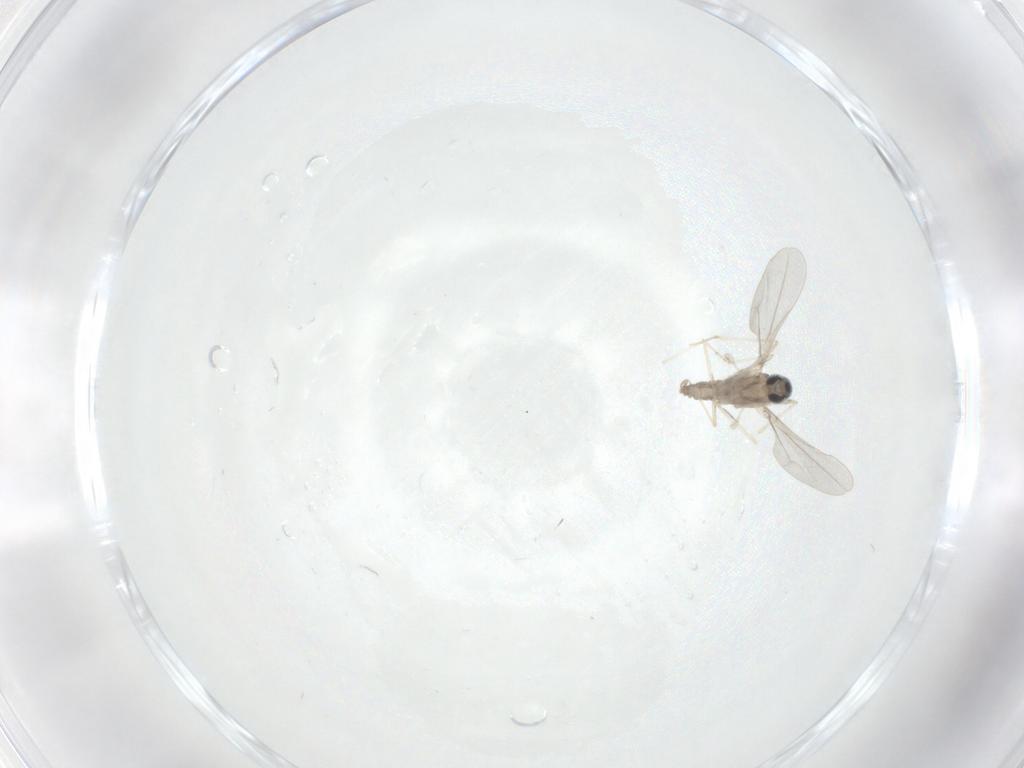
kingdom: Animalia
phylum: Arthropoda
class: Insecta
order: Diptera
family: Cecidomyiidae
